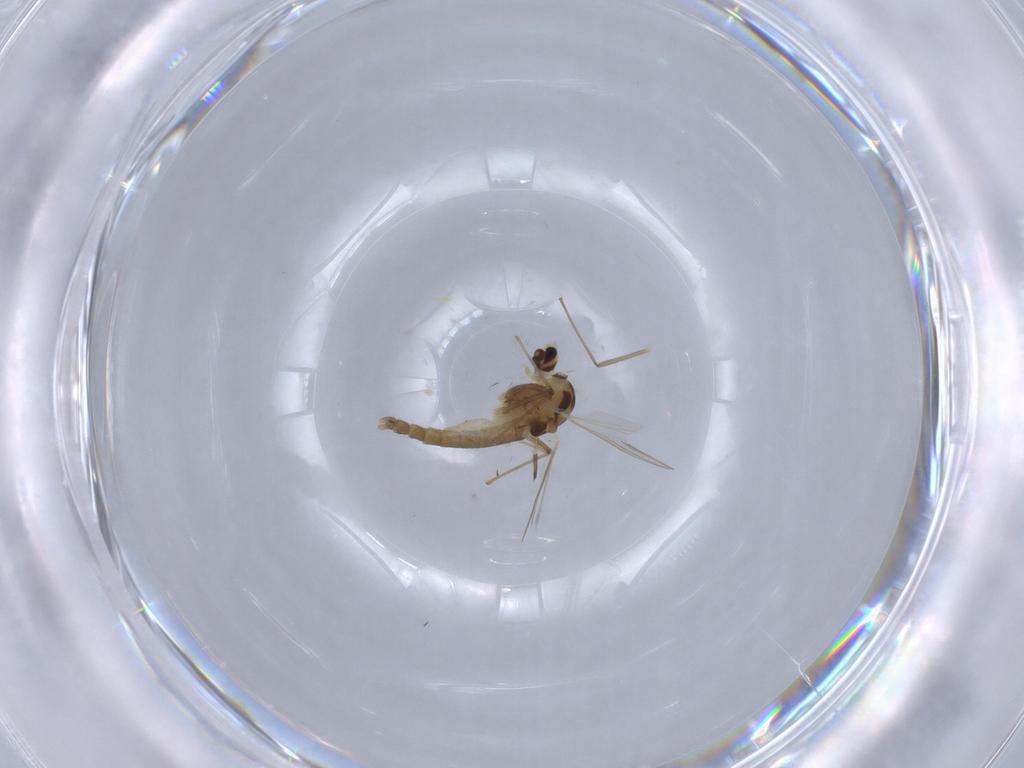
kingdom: Animalia
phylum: Arthropoda
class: Insecta
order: Diptera
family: Chironomidae
